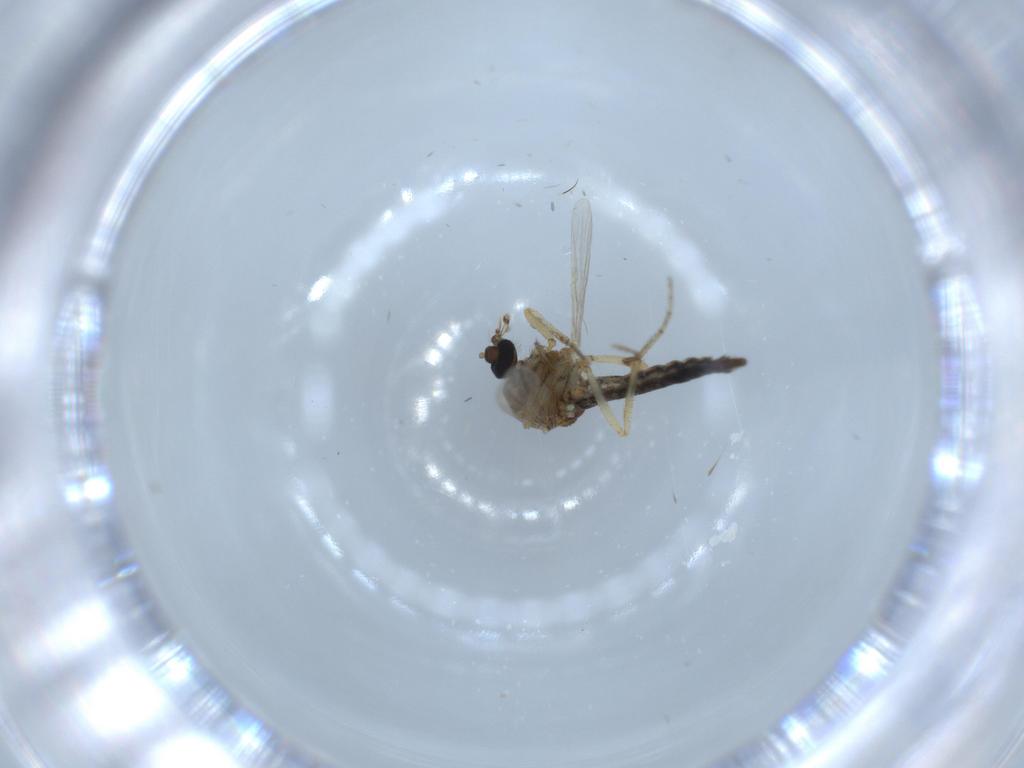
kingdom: Animalia
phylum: Arthropoda
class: Insecta
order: Diptera
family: Ceratopogonidae
